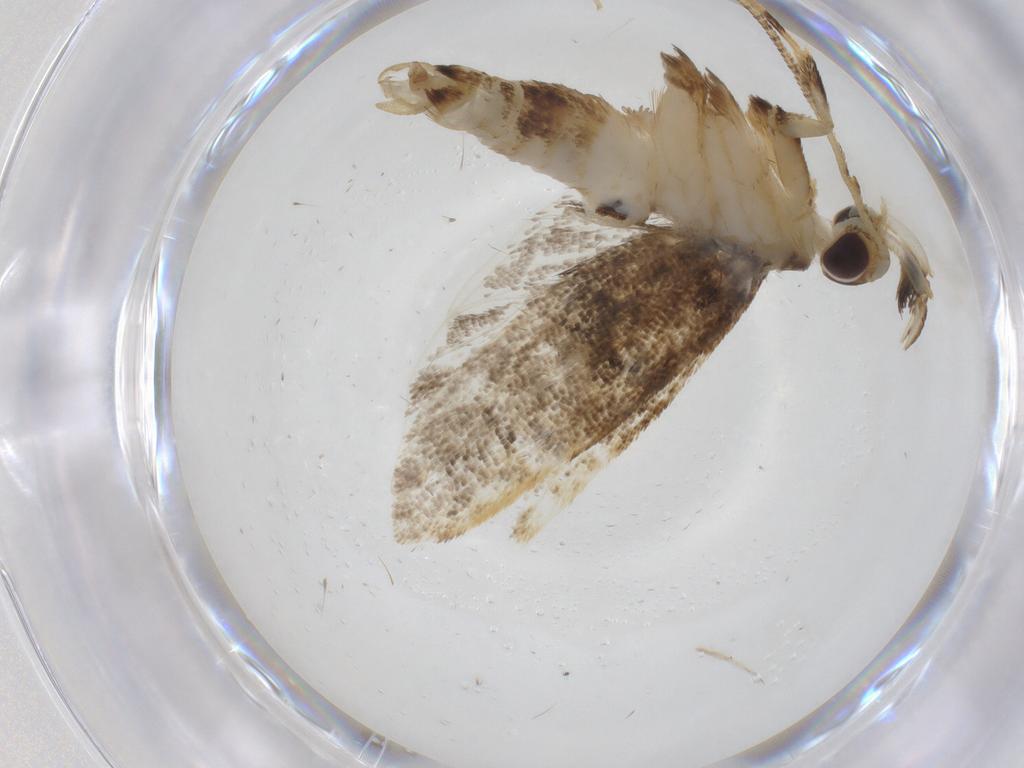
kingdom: Animalia
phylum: Arthropoda
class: Insecta
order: Lepidoptera
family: Lecithoceridae
